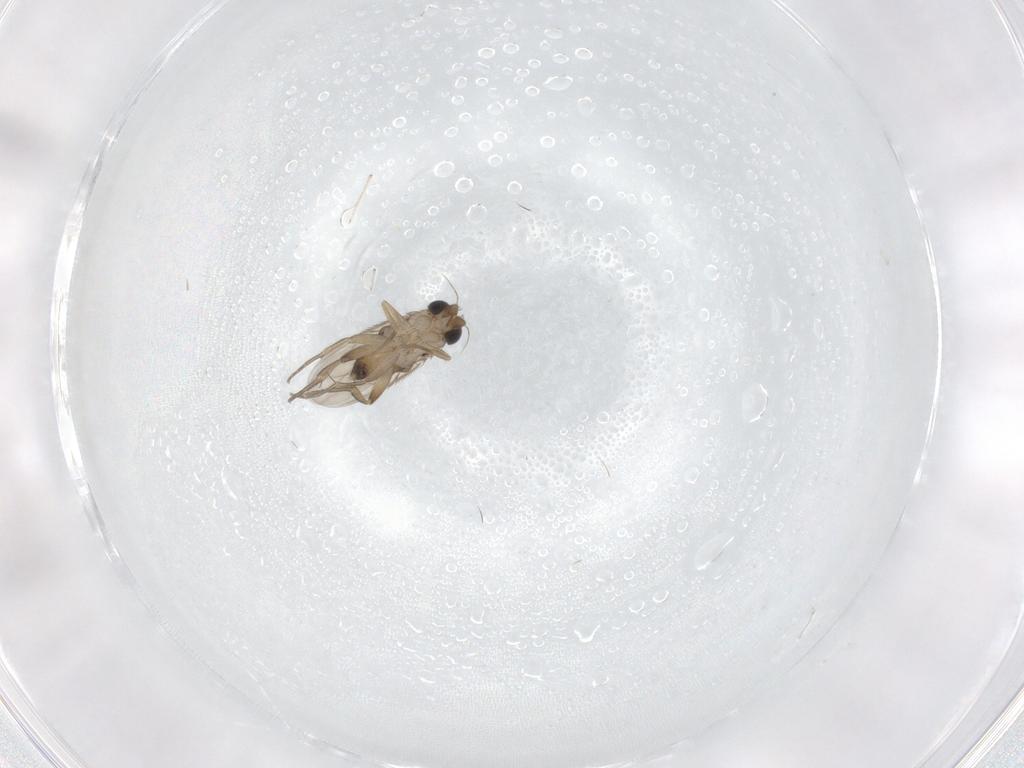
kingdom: Animalia
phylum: Arthropoda
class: Insecta
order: Diptera
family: Phoridae
